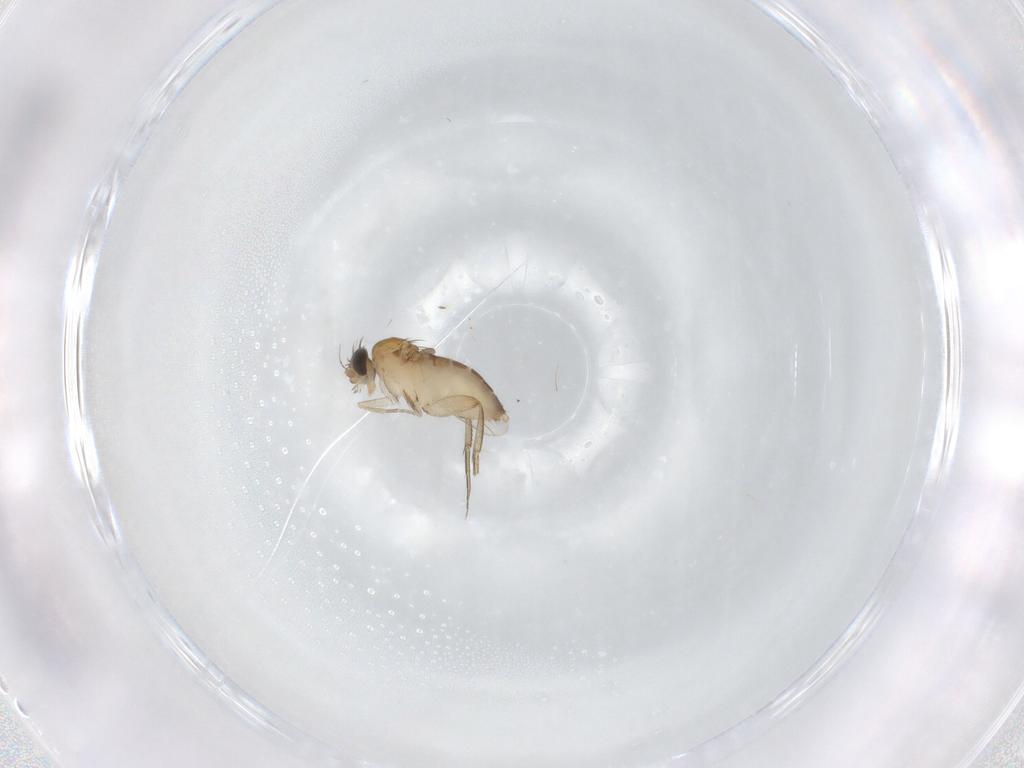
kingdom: Animalia
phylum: Arthropoda
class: Insecta
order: Diptera
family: Phoridae
